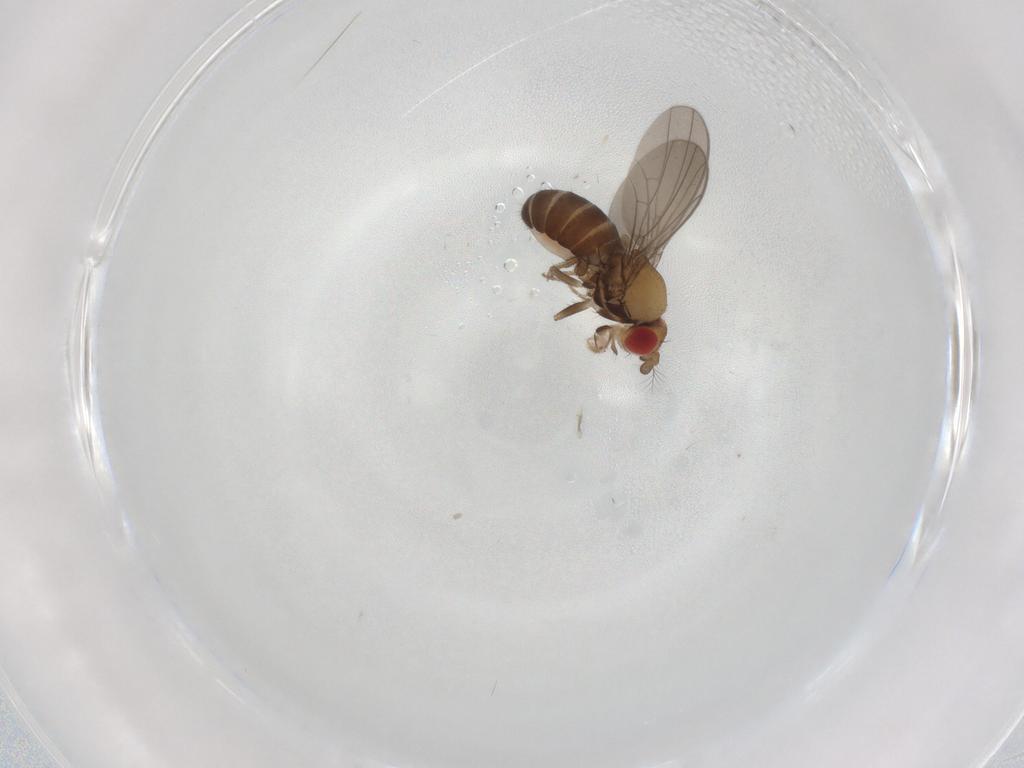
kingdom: Animalia
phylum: Arthropoda
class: Insecta
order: Diptera
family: Drosophilidae
